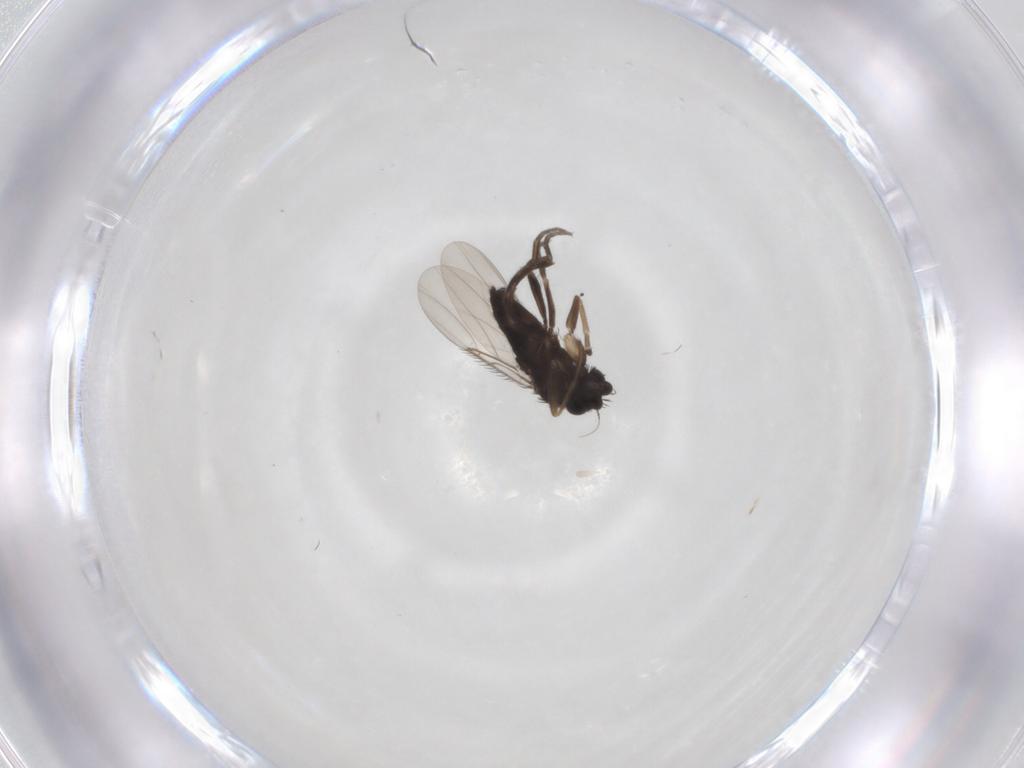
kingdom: Animalia
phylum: Arthropoda
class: Insecta
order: Diptera
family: Phoridae
